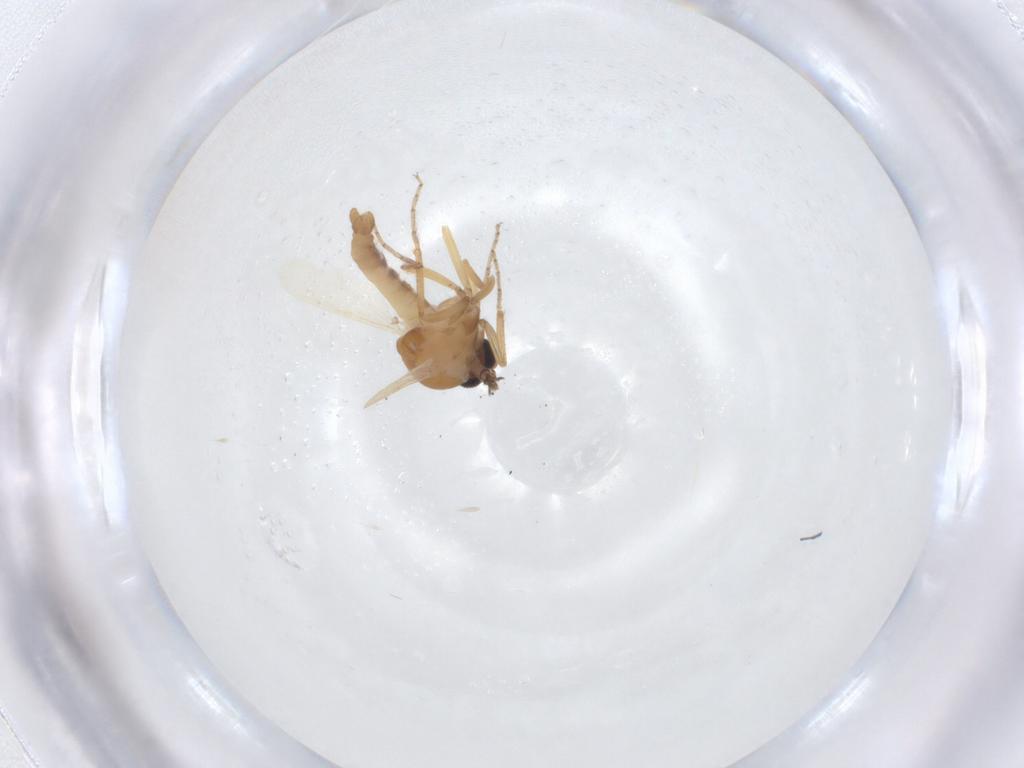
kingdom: Animalia
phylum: Arthropoda
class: Insecta
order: Diptera
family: Ceratopogonidae
